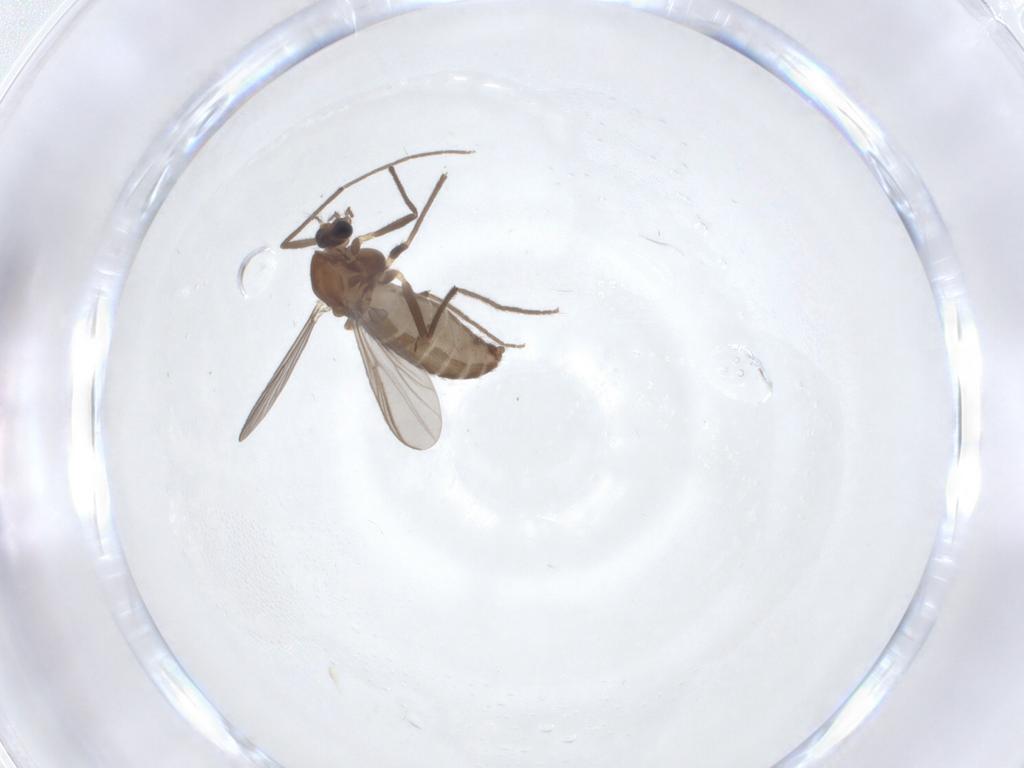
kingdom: Animalia
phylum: Arthropoda
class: Insecta
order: Diptera
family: Chironomidae
